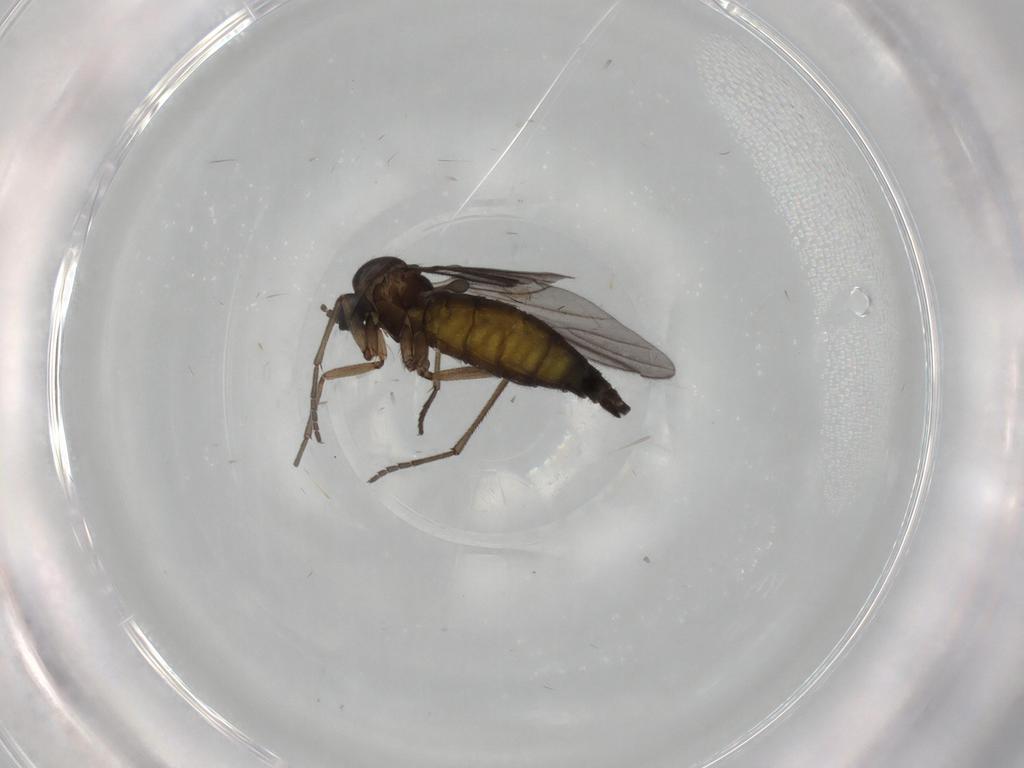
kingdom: Animalia
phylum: Arthropoda
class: Insecta
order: Diptera
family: Sciaridae
